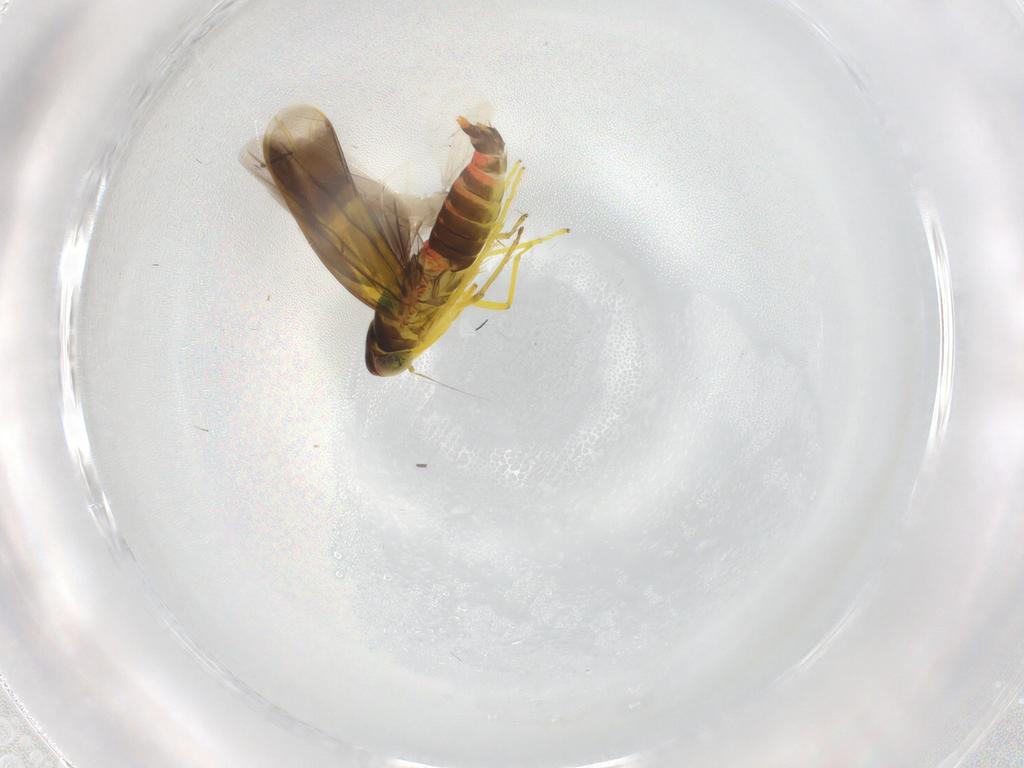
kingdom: Animalia
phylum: Arthropoda
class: Insecta
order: Hemiptera
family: Cicadellidae
